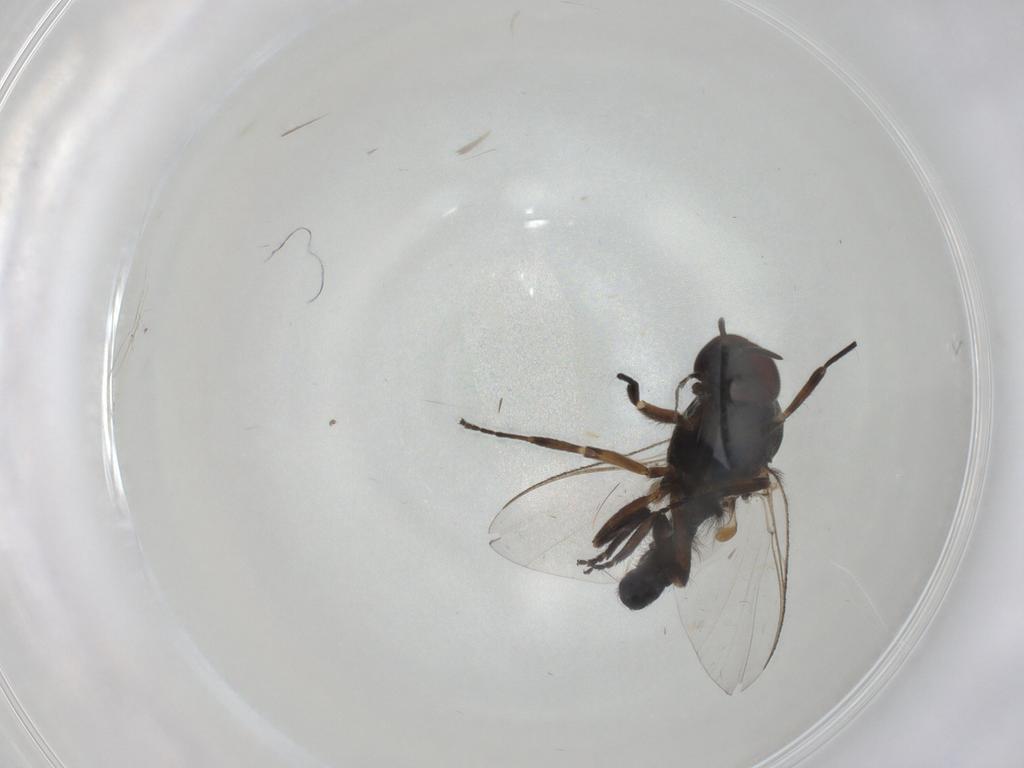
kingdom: Animalia
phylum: Arthropoda
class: Insecta
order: Diptera
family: Chironomidae
